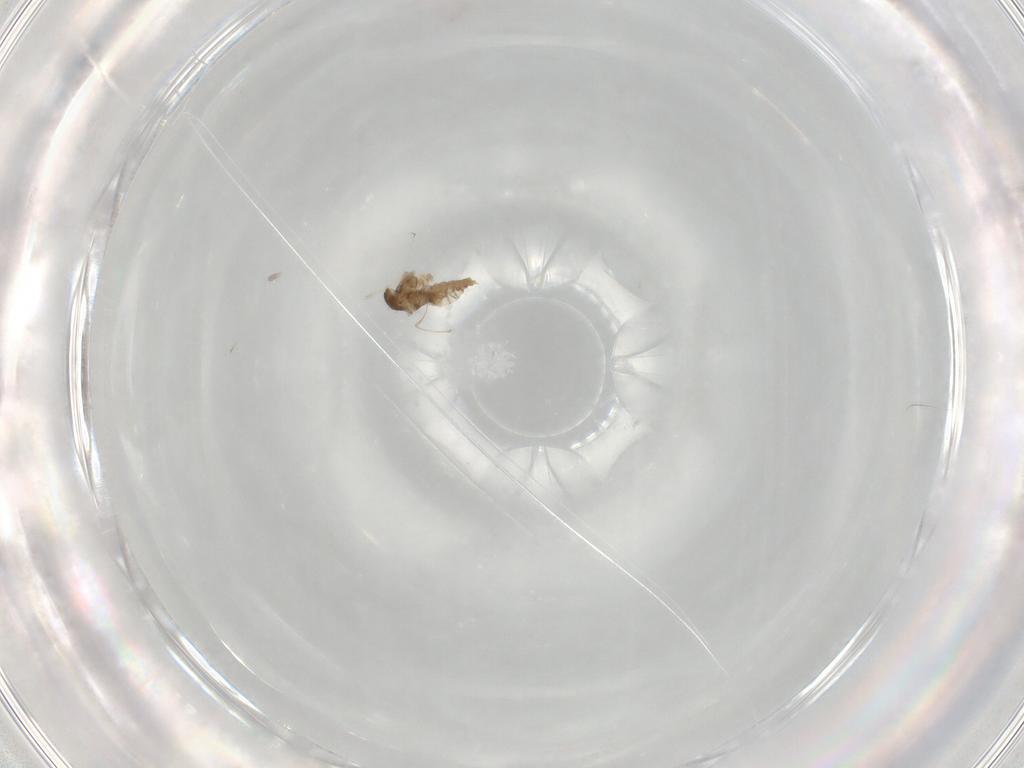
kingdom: Animalia
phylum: Arthropoda
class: Insecta
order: Diptera
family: Cecidomyiidae
